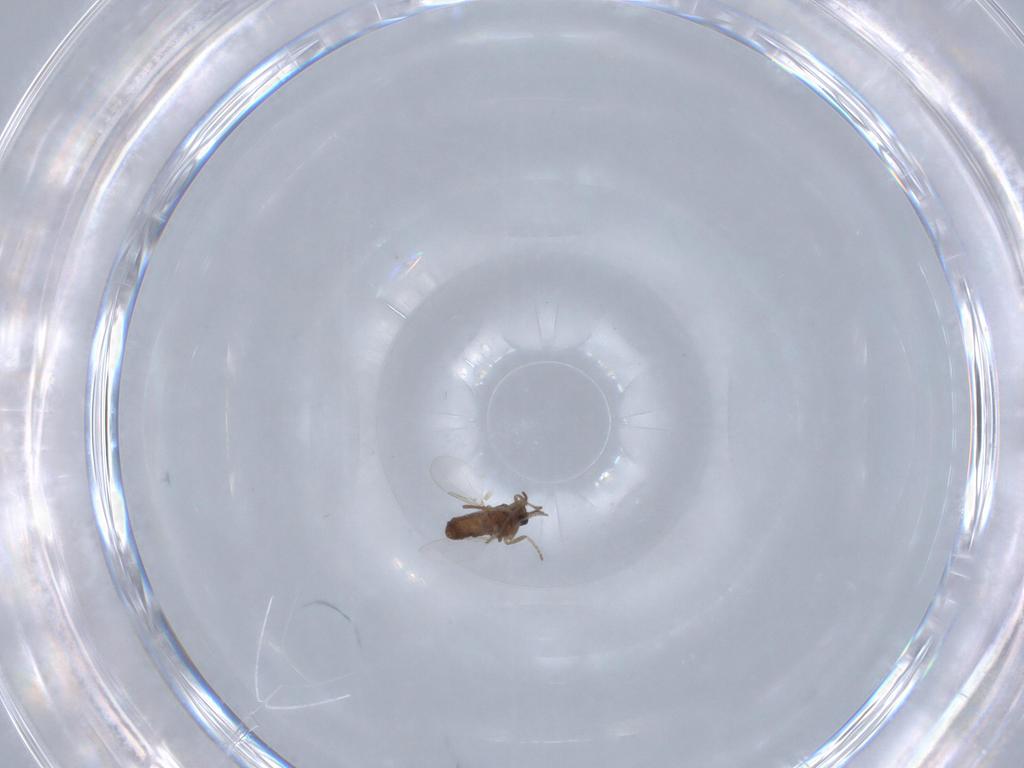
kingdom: Animalia
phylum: Arthropoda
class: Insecta
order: Diptera
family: Ceratopogonidae
